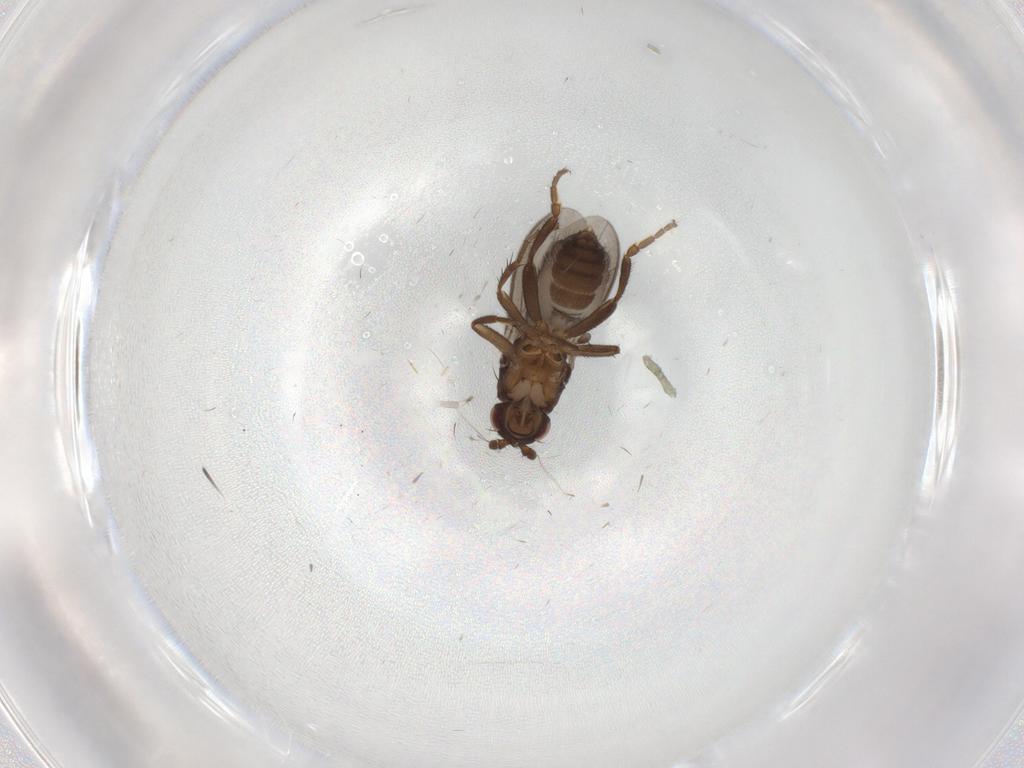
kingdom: Animalia
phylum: Arthropoda
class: Insecta
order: Diptera
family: Sphaeroceridae
